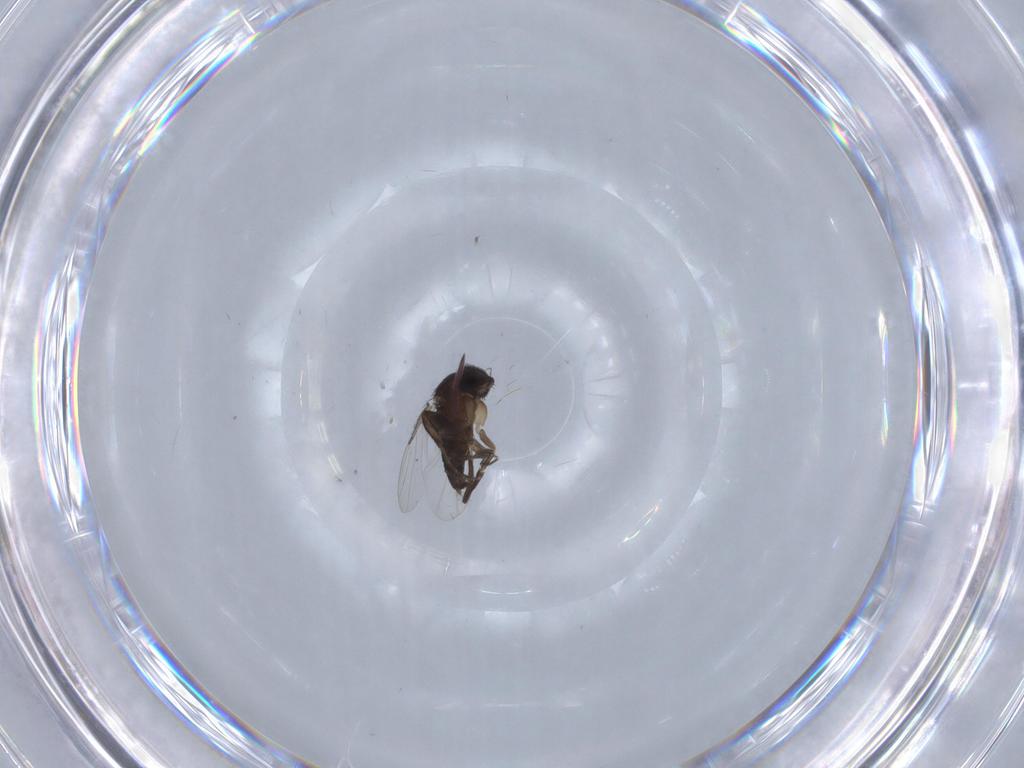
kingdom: Animalia
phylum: Arthropoda
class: Insecta
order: Diptera
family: Phoridae
